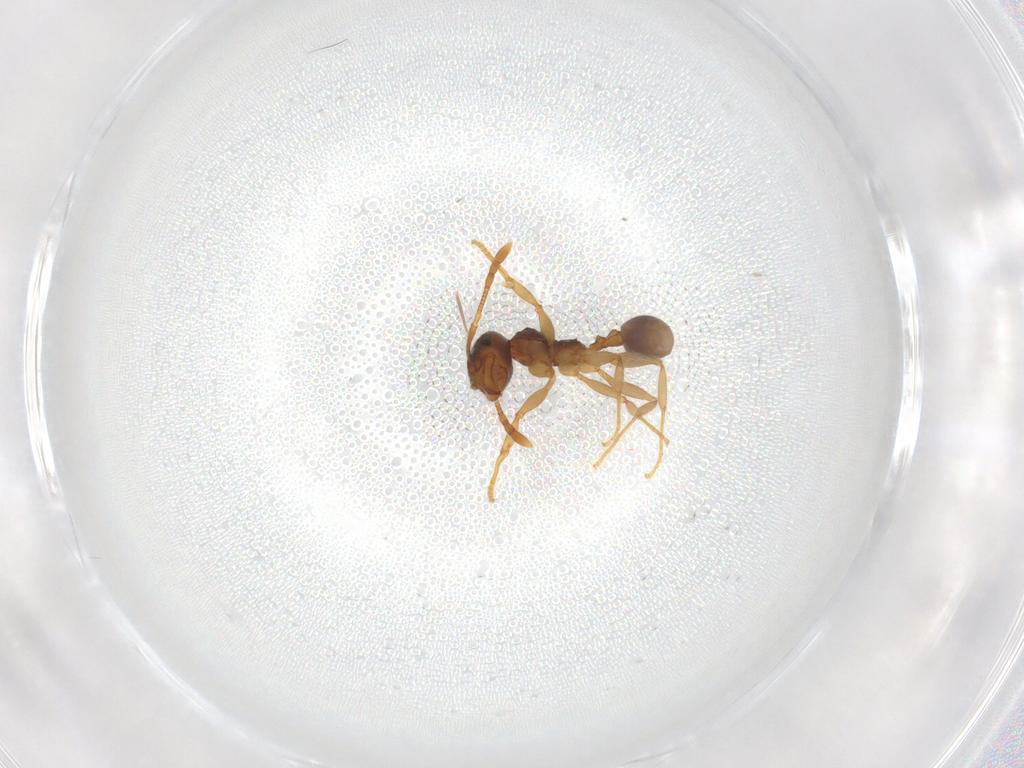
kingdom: Animalia
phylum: Arthropoda
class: Insecta
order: Hymenoptera
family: Formicidae
